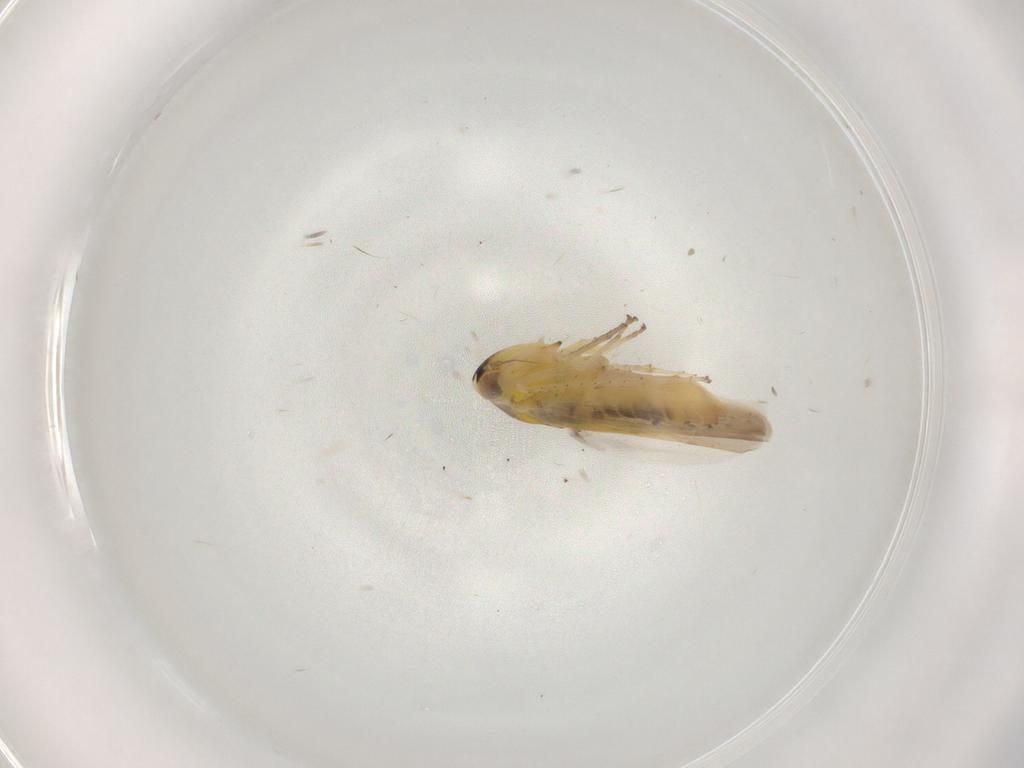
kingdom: Animalia
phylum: Arthropoda
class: Insecta
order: Hemiptera
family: Cicadellidae
